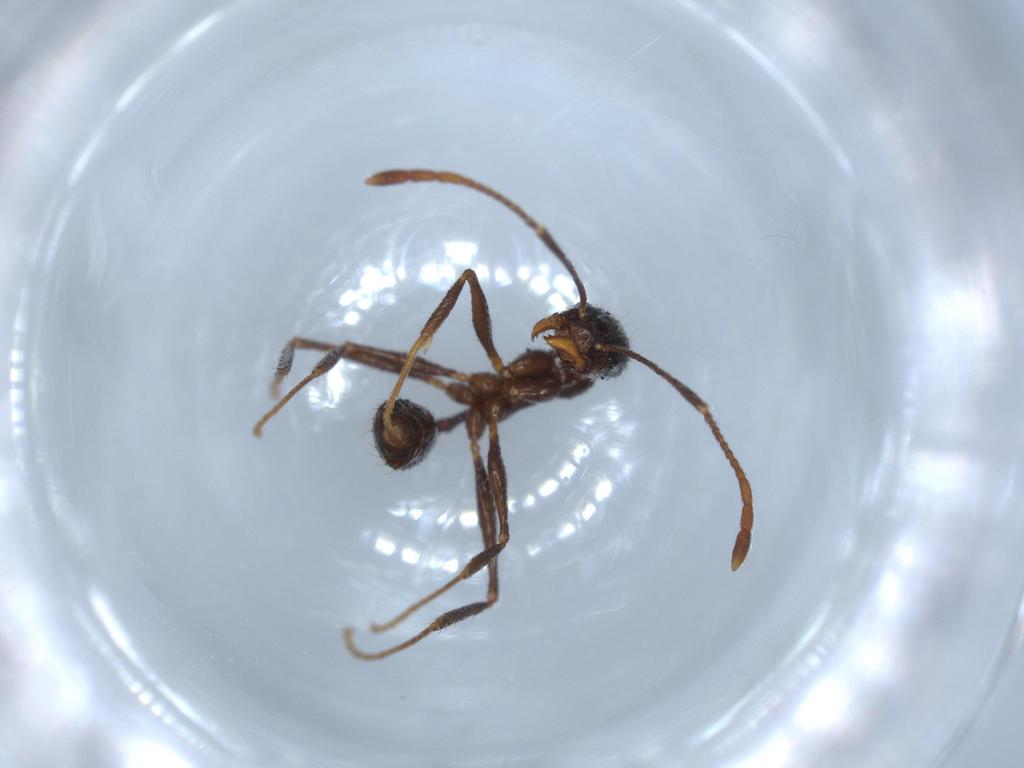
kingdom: Animalia
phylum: Arthropoda
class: Insecta
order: Hymenoptera
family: Formicidae
